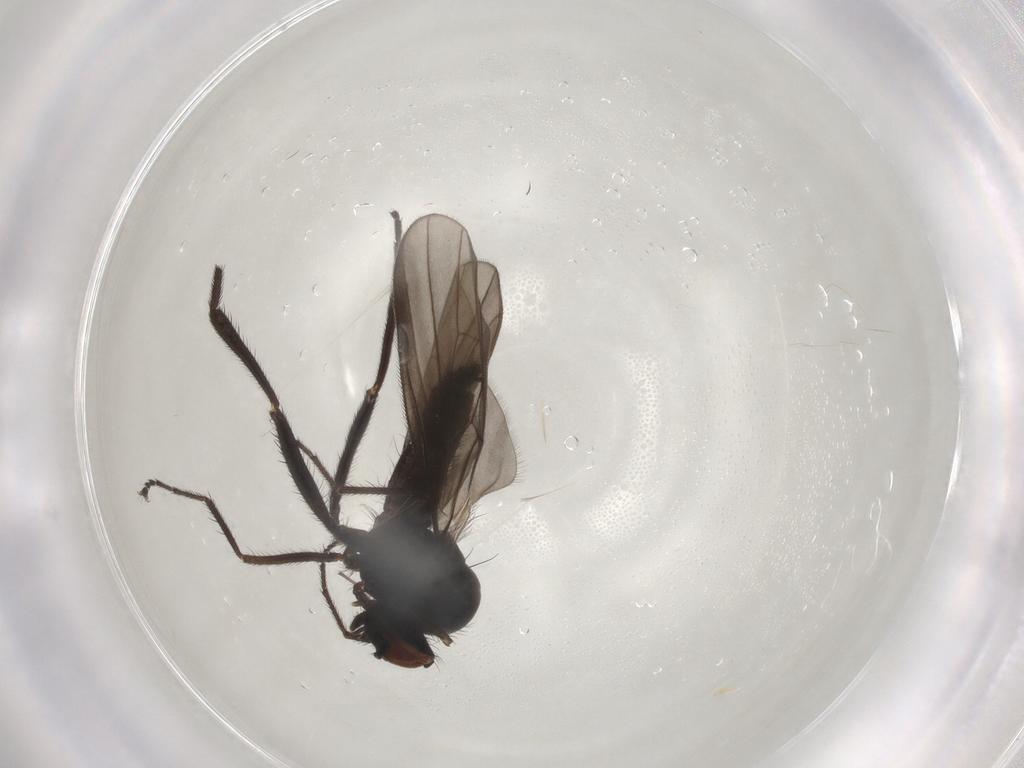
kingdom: Animalia
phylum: Arthropoda
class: Insecta
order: Diptera
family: Hybotidae
